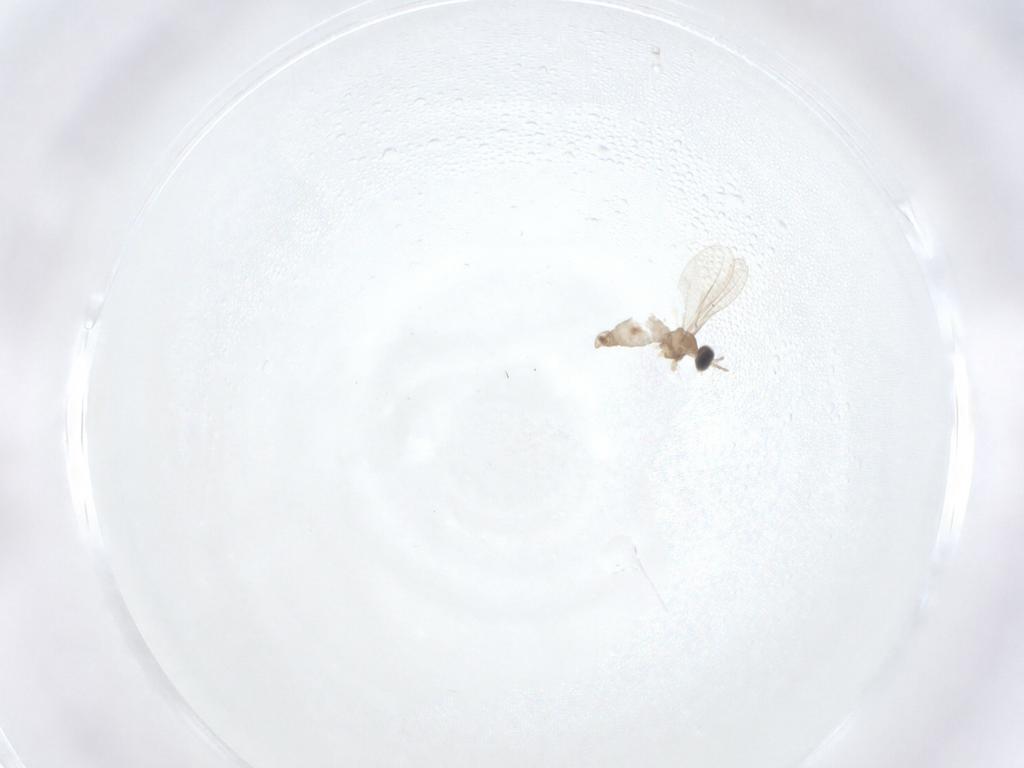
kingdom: Animalia
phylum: Arthropoda
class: Insecta
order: Diptera
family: Cecidomyiidae
